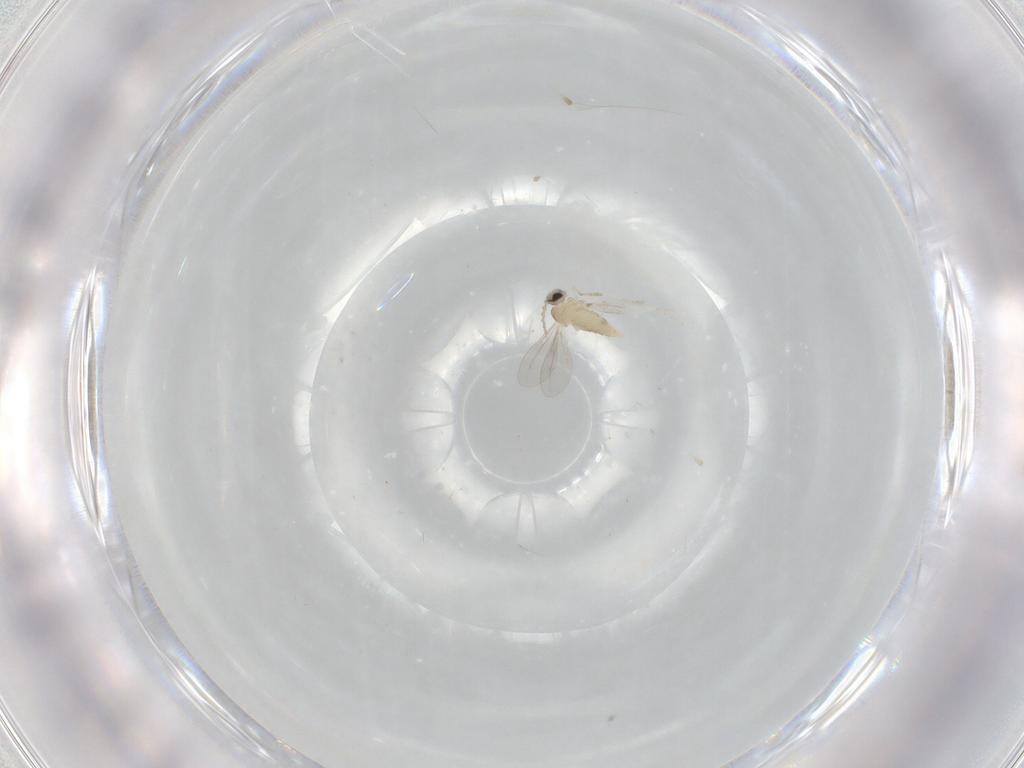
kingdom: Animalia
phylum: Arthropoda
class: Insecta
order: Diptera
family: Cecidomyiidae
